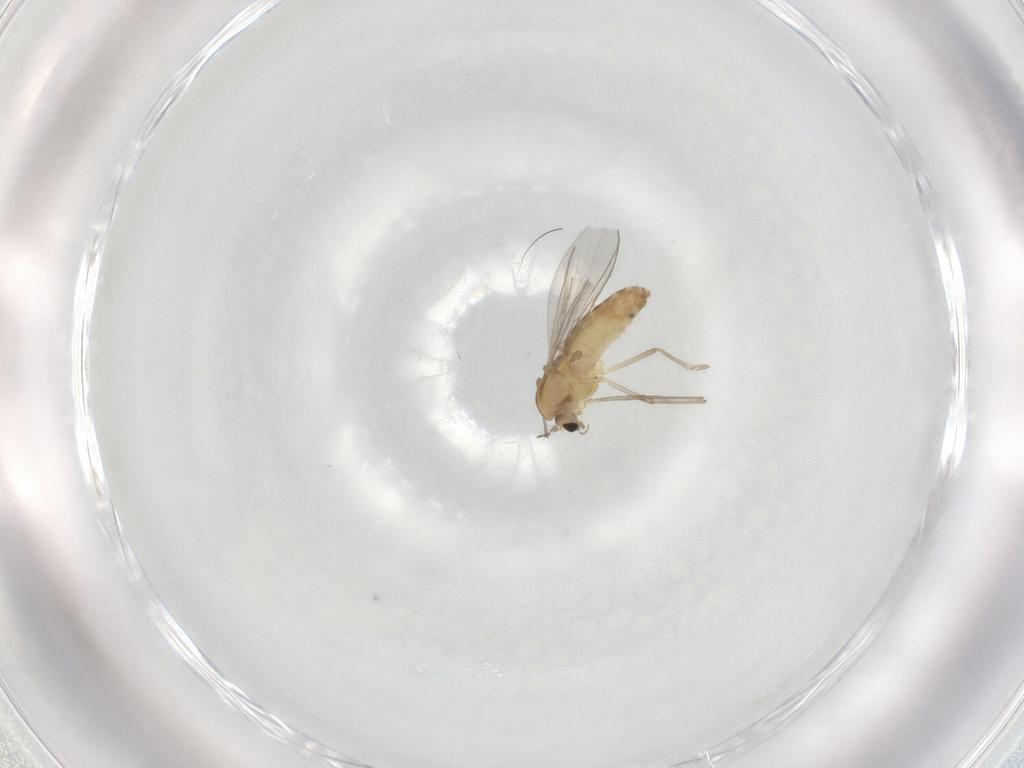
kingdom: Animalia
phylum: Arthropoda
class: Insecta
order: Diptera
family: Chironomidae
